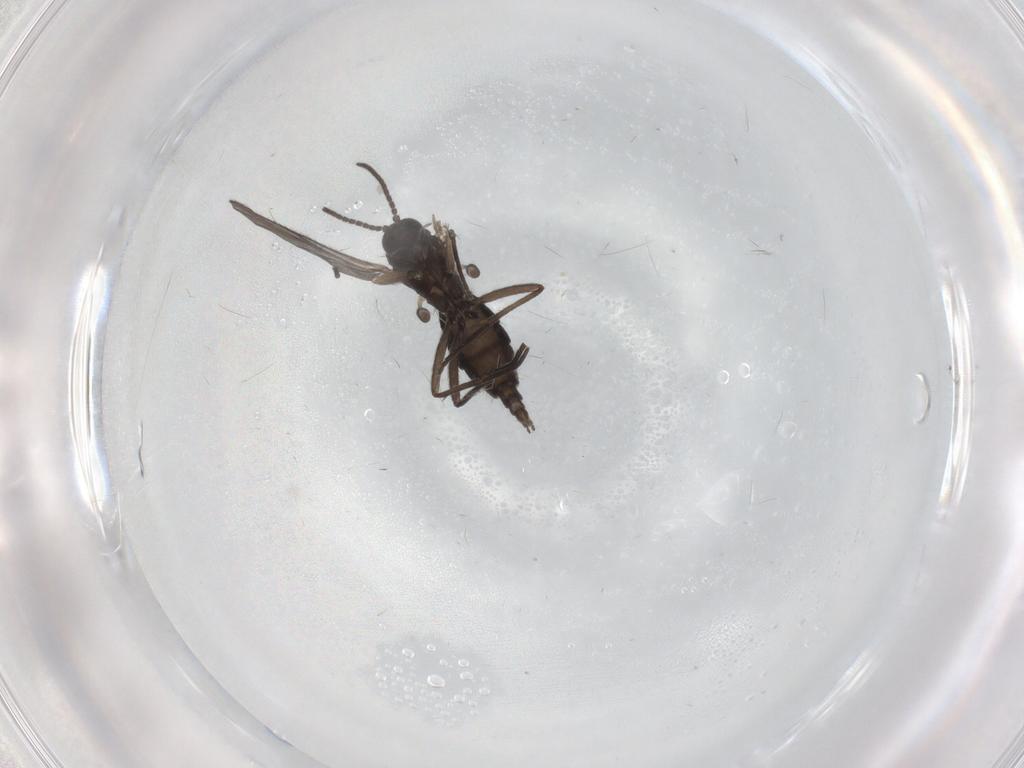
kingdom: Animalia
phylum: Arthropoda
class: Insecta
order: Diptera
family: Sciaridae
